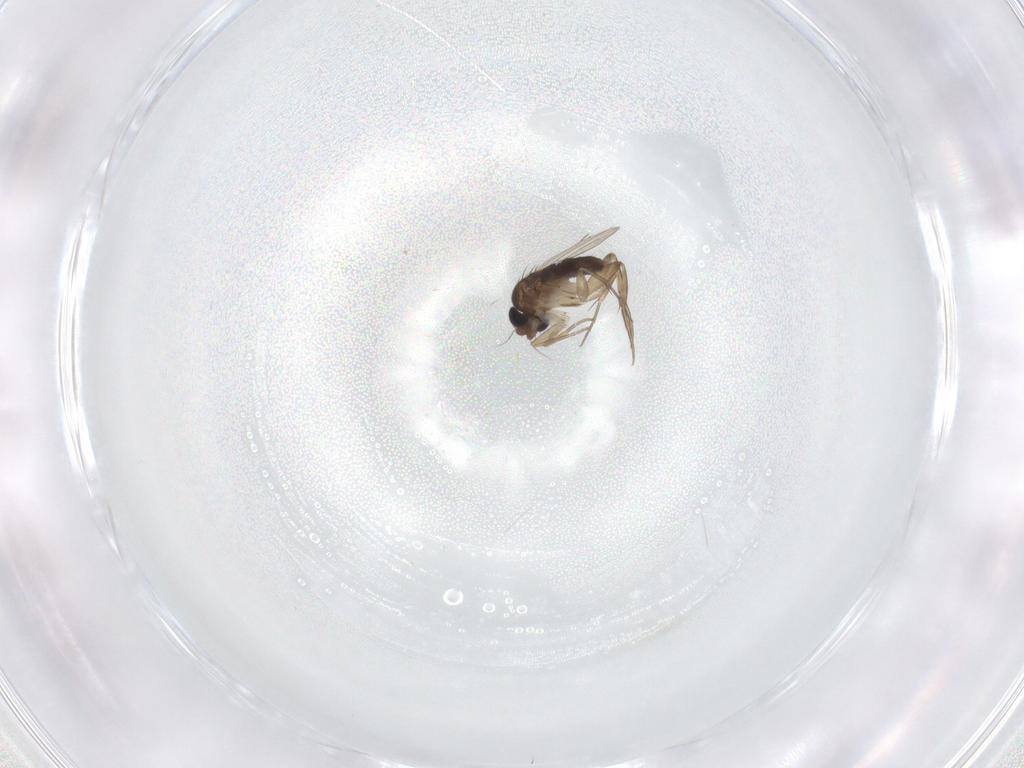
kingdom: Animalia
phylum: Arthropoda
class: Insecta
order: Diptera
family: Phoridae
